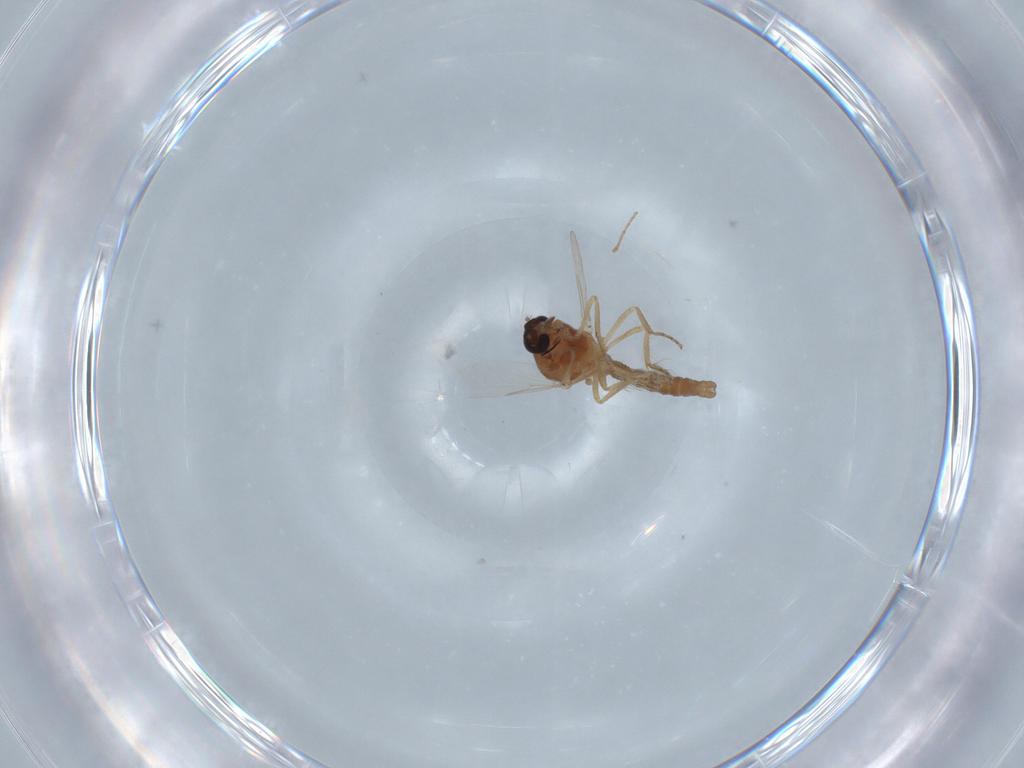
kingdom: Animalia
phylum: Arthropoda
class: Insecta
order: Diptera
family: Ceratopogonidae
